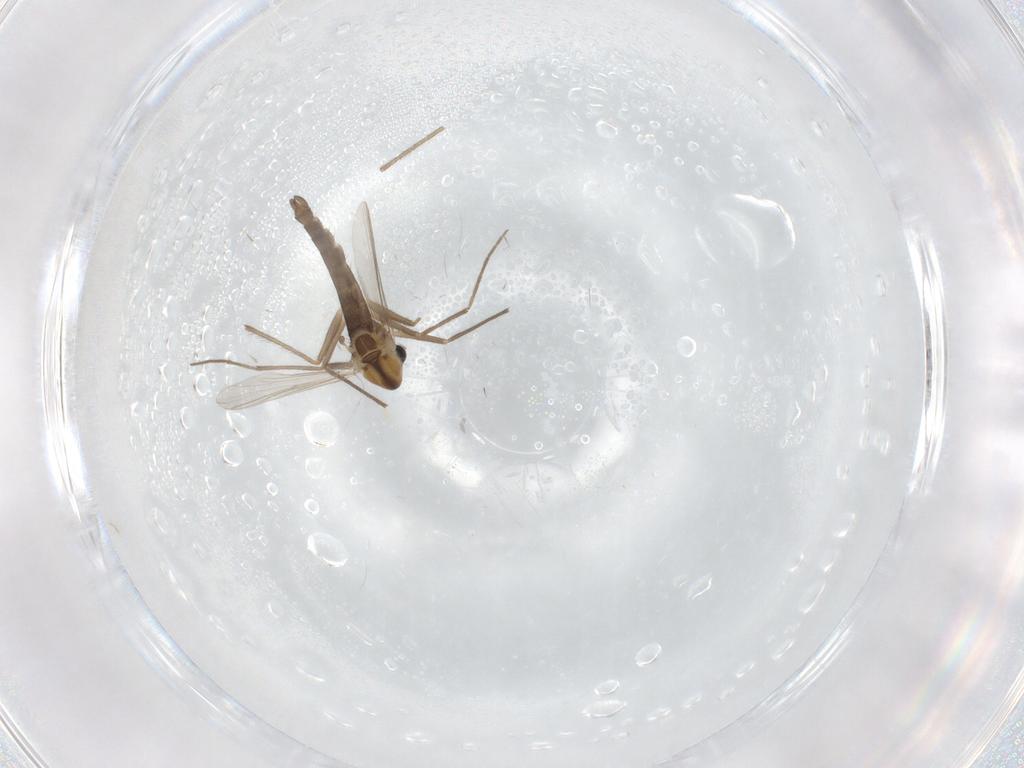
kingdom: Animalia
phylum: Arthropoda
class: Insecta
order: Diptera
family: Chironomidae
